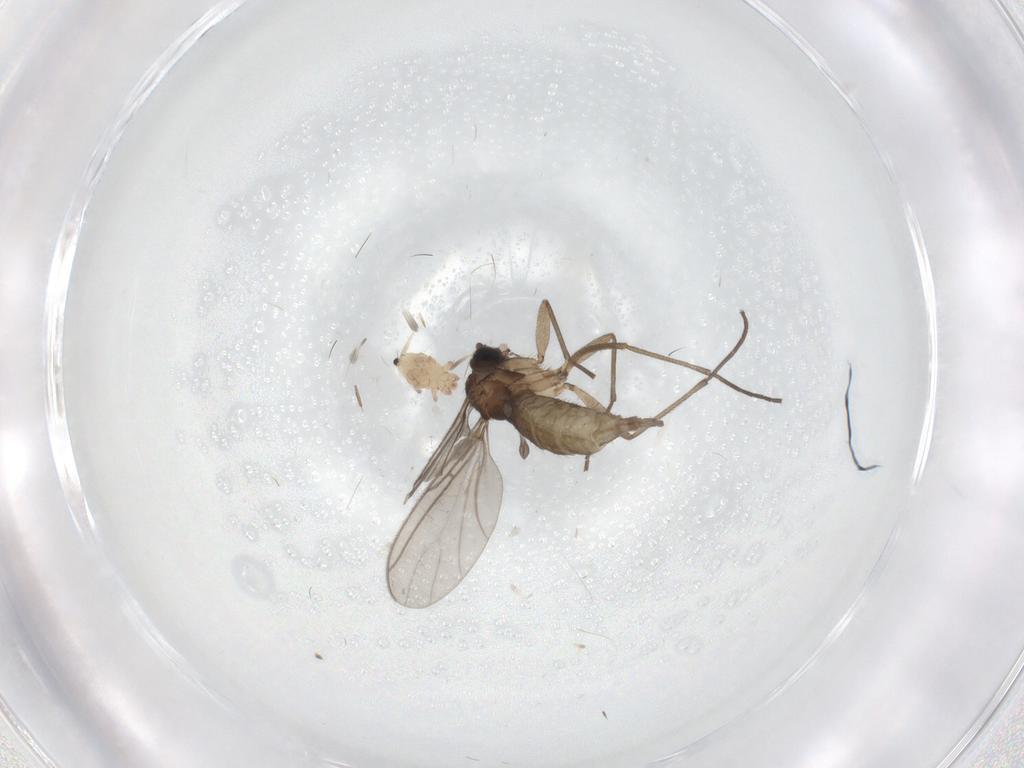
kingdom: Animalia
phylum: Arthropoda
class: Insecta
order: Diptera
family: Sciaridae
